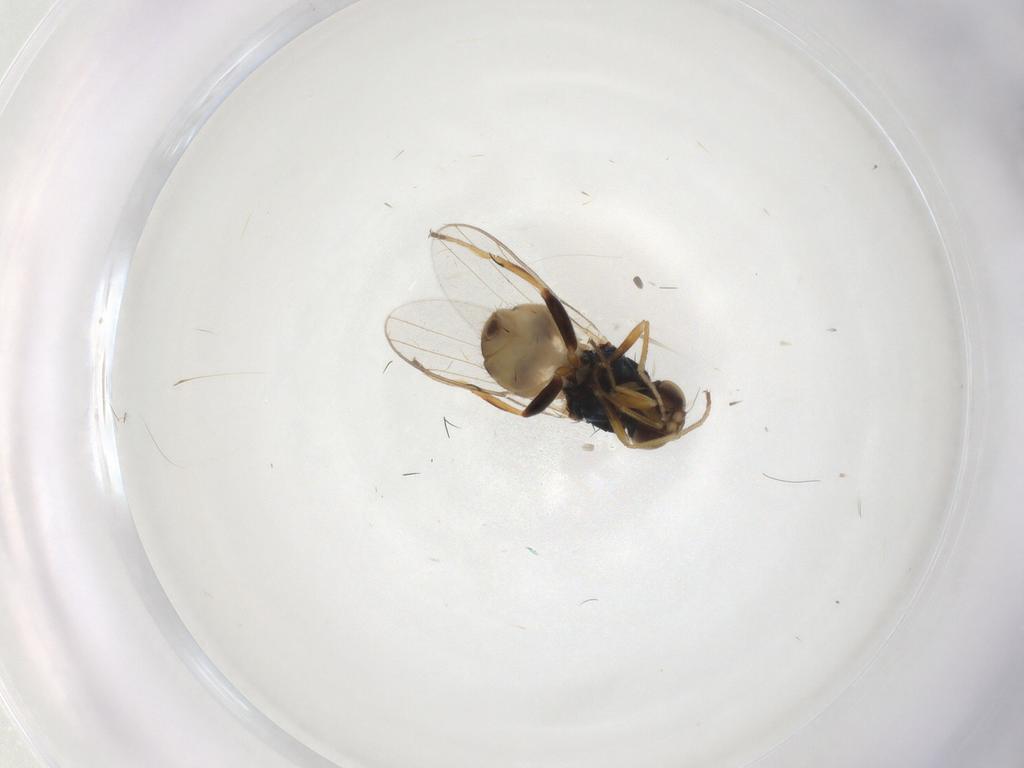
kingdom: Animalia
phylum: Arthropoda
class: Insecta
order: Diptera
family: Chloropidae
